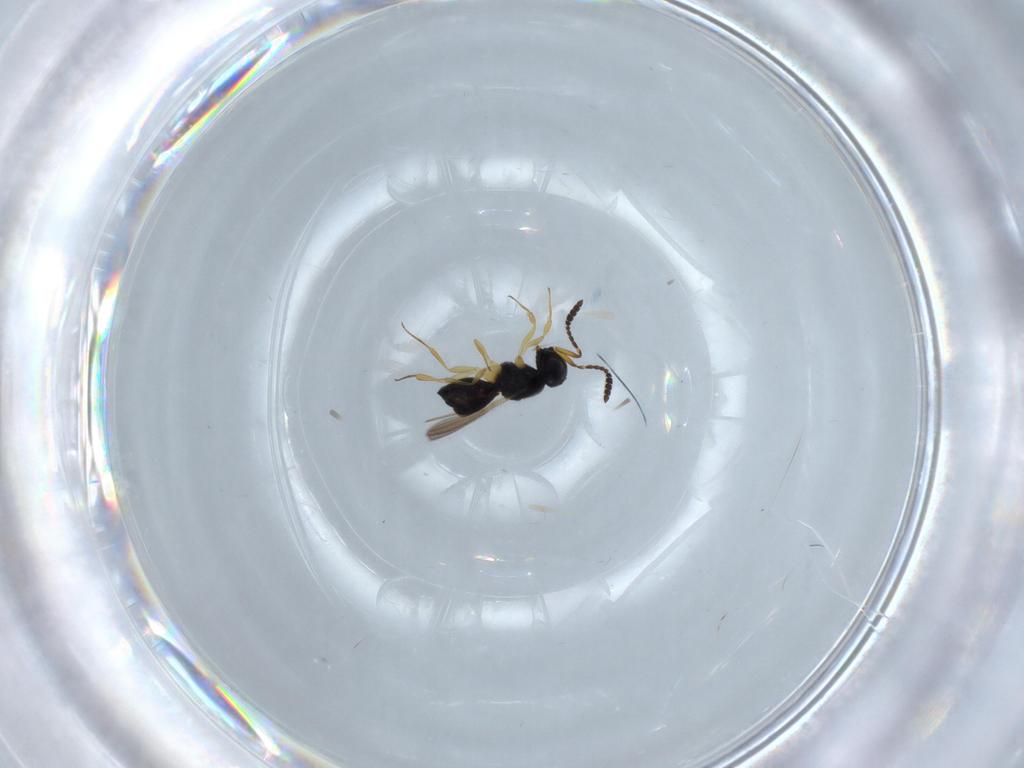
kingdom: Animalia
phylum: Arthropoda
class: Insecta
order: Hymenoptera
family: Scelionidae
